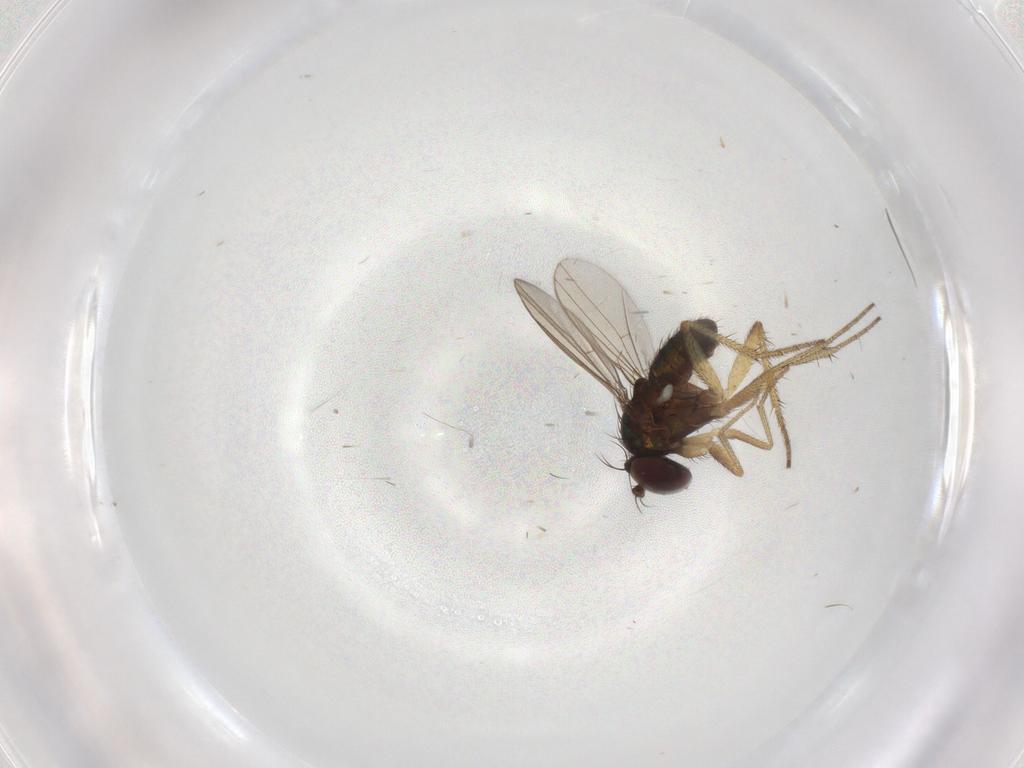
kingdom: Animalia
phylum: Arthropoda
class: Insecta
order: Diptera
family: Chironomidae
